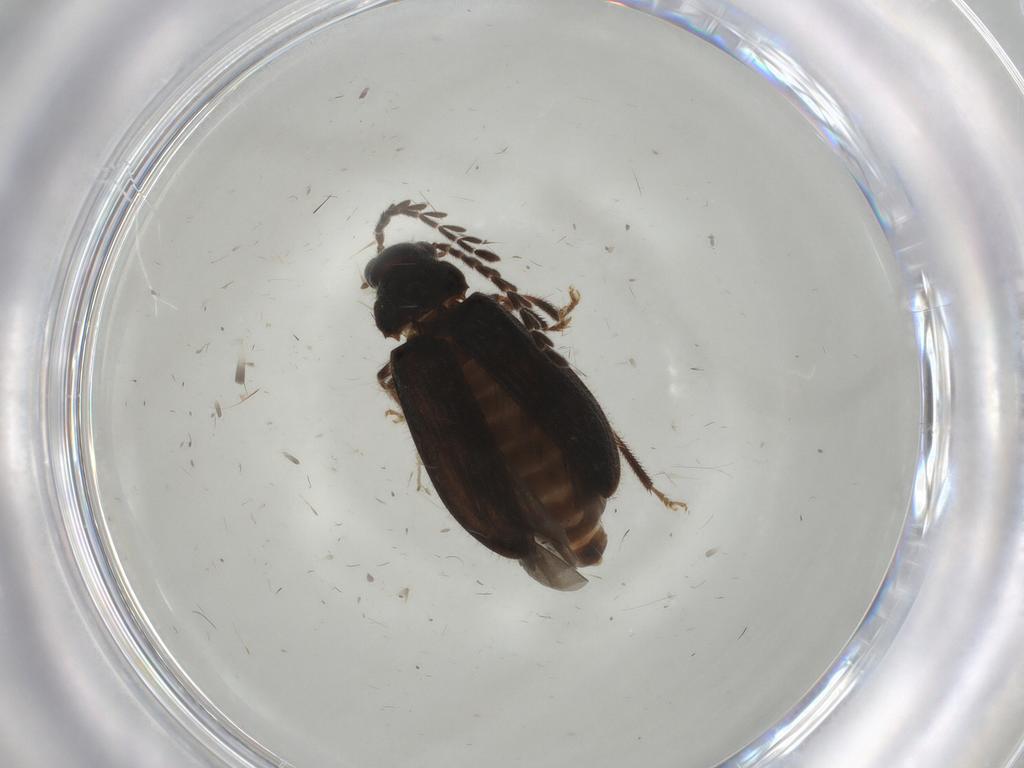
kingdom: Animalia
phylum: Arthropoda
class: Insecta
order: Coleoptera
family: Ptilodactylidae
